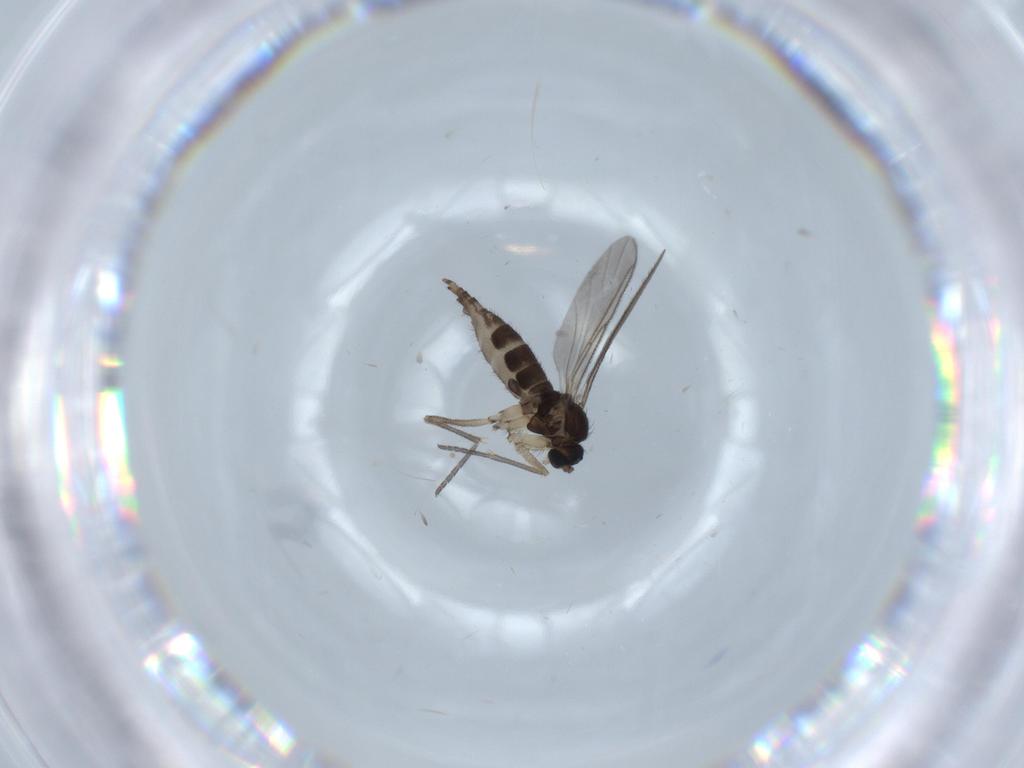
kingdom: Animalia
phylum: Arthropoda
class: Insecta
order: Diptera
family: Sciaridae
